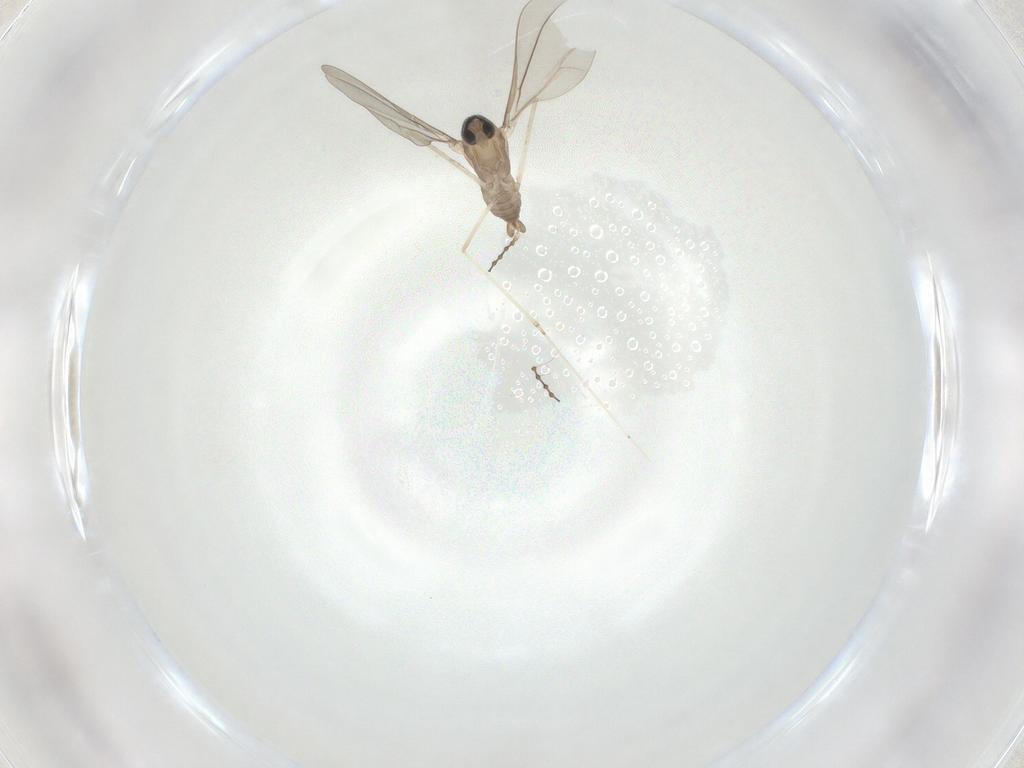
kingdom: Animalia
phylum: Arthropoda
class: Insecta
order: Diptera
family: Cecidomyiidae
